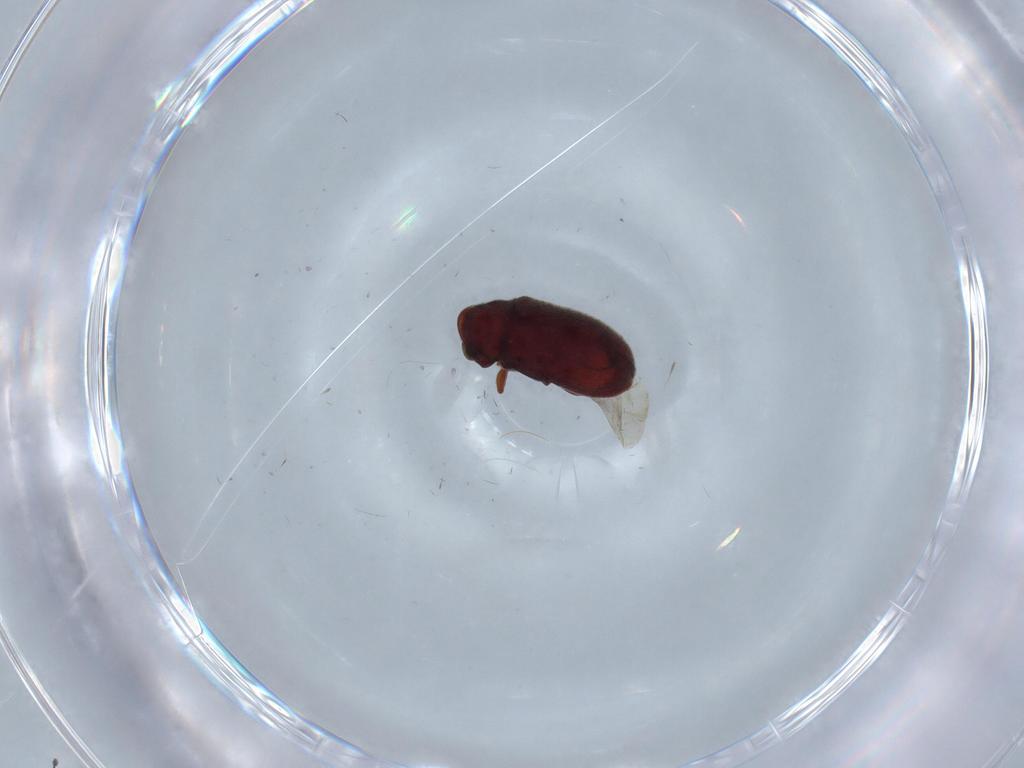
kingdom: Animalia
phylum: Arthropoda
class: Insecta
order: Coleoptera
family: Anobiidae
